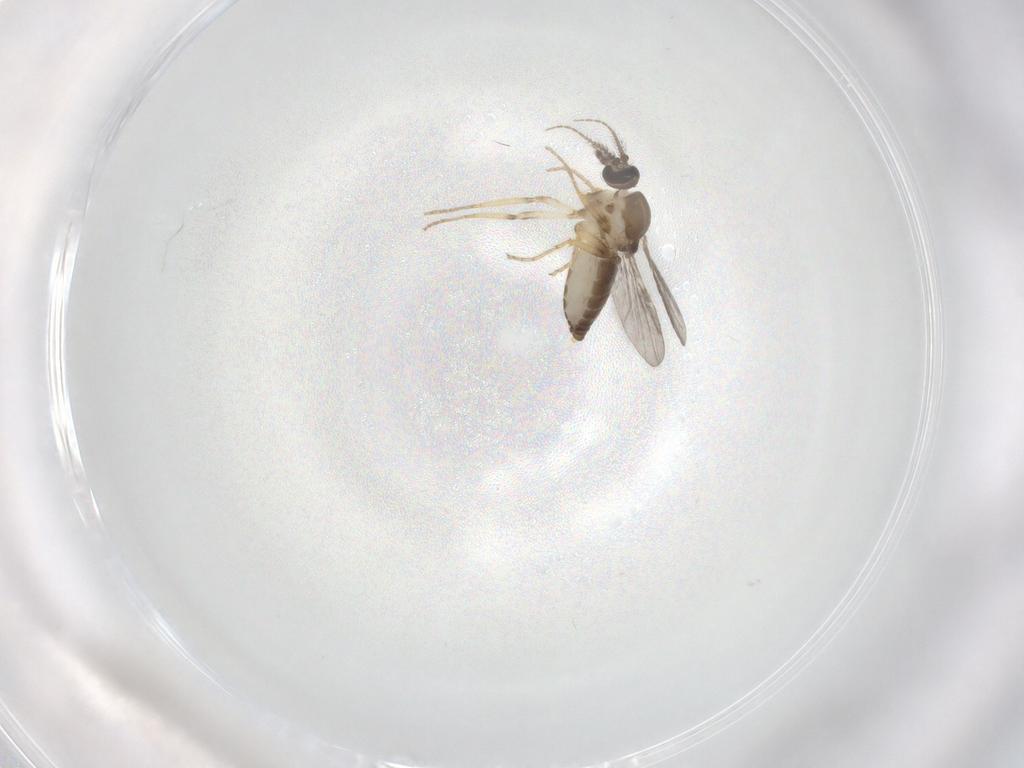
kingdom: Animalia
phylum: Arthropoda
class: Insecta
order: Diptera
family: Ceratopogonidae
